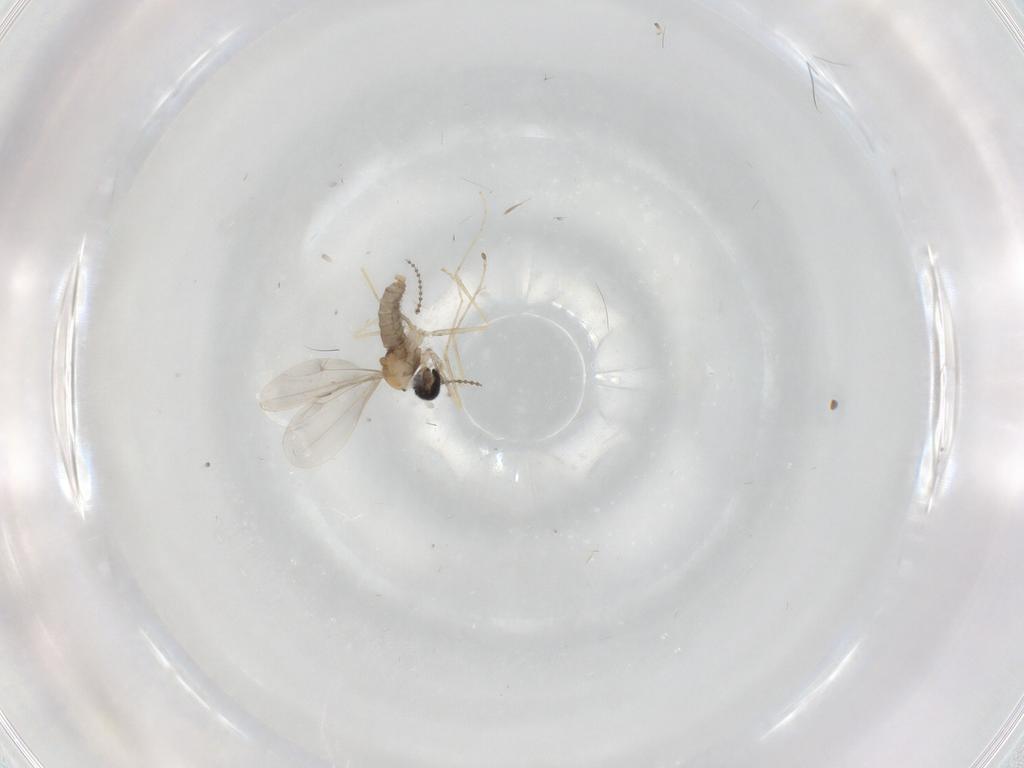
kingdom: Animalia
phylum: Arthropoda
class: Insecta
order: Diptera
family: Cecidomyiidae
